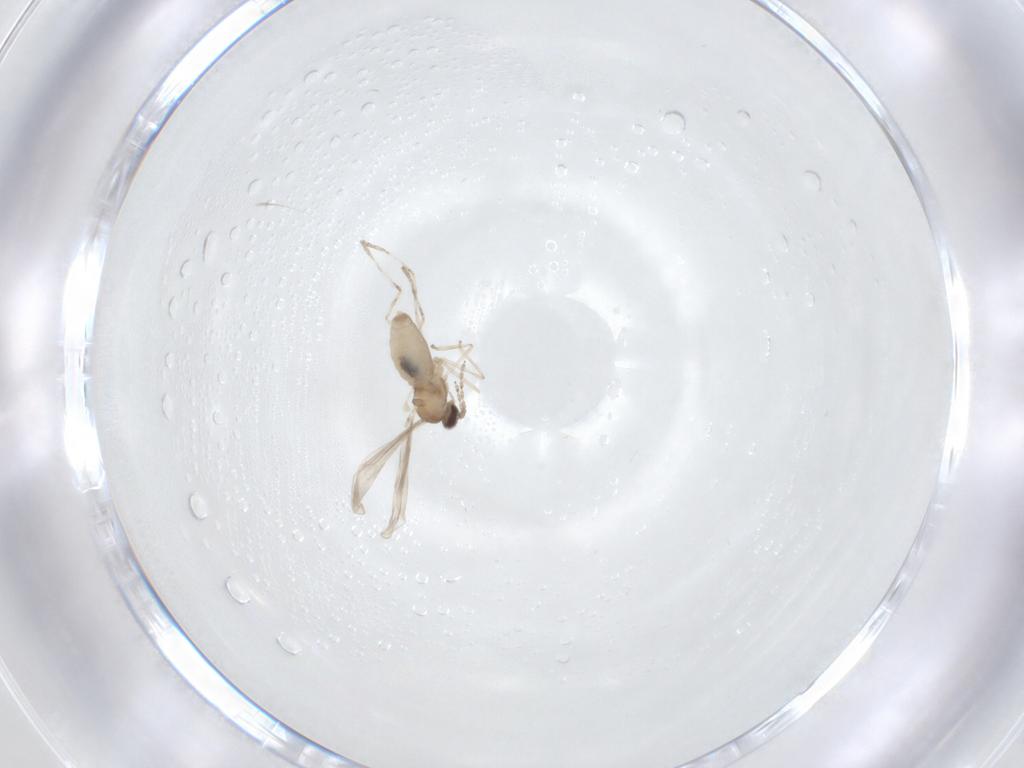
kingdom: Animalia
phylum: Arthropoda
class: Insecta
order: Diptera
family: Cecidomyiidae
